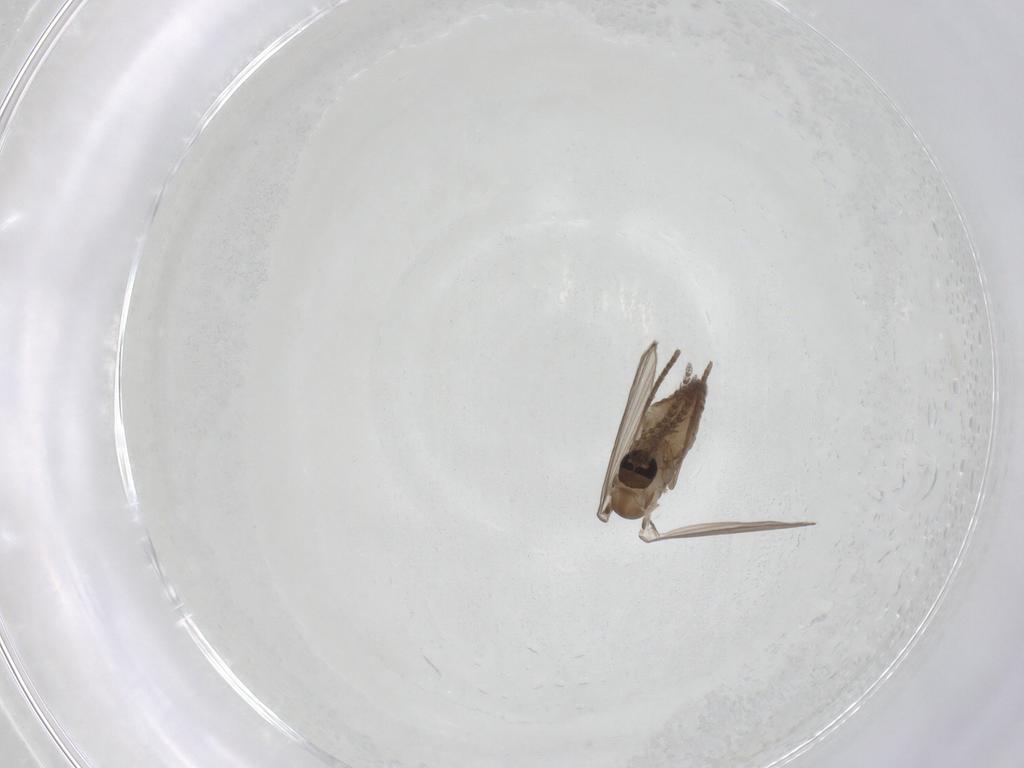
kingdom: Animalia
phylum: Arthropoda
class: Insecta
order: Diptera
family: Psychodidae
